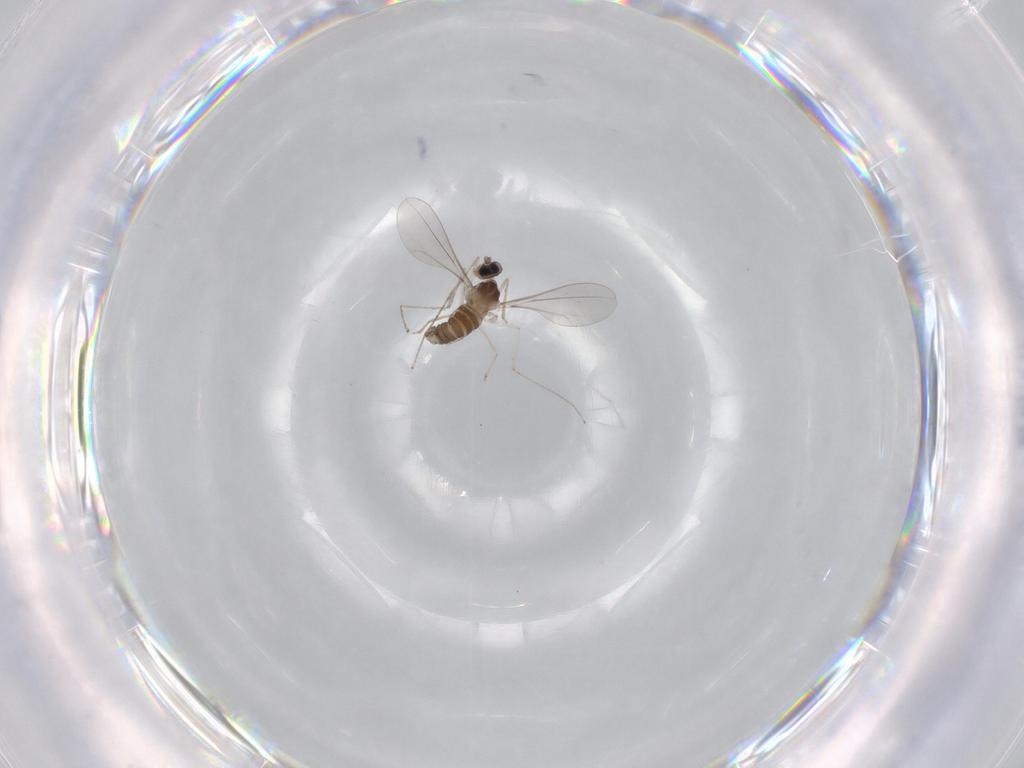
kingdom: Animalia
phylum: Arthropoda
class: Insecta
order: Diptera
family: Cecidomyiidae
